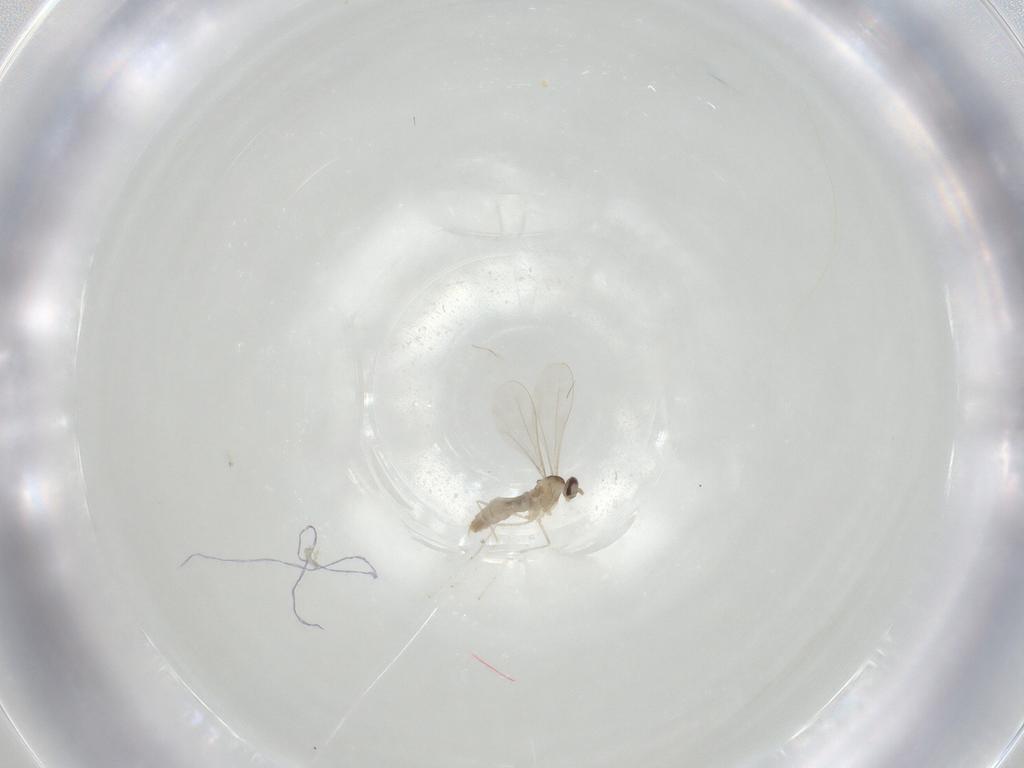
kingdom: Animalia
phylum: Arthropoda
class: Insecta
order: Diptera
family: Cecidomyiidae
